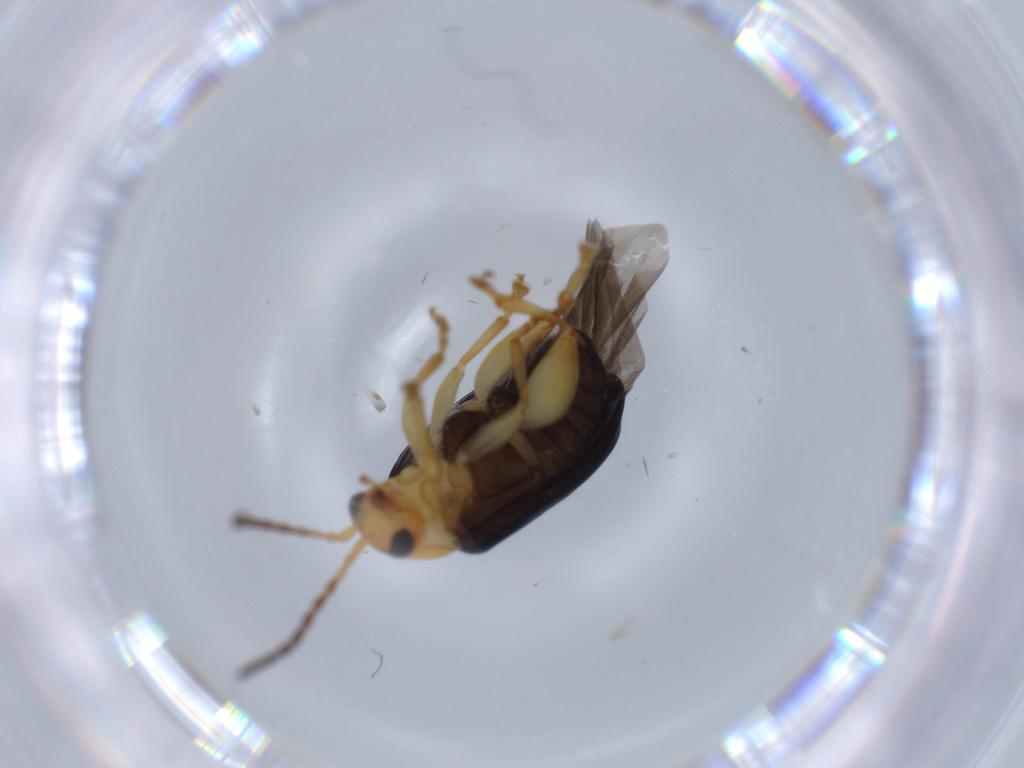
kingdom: Animalia
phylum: Arthropoda
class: Insecta
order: Coleoptera
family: Chrysomelidae
